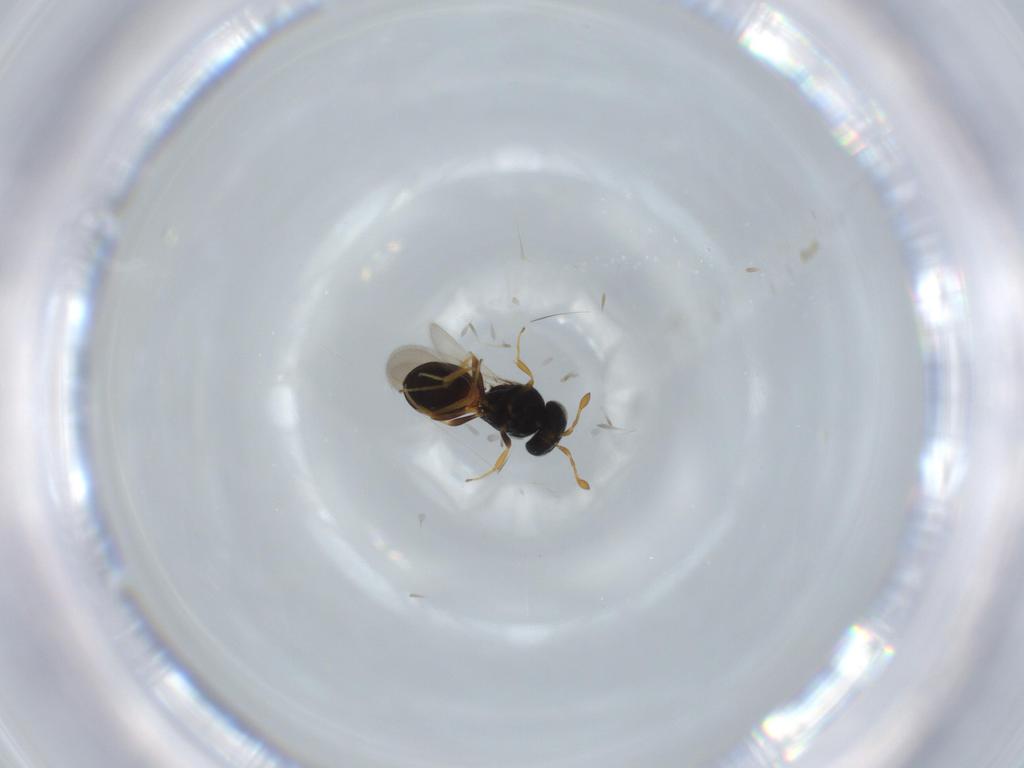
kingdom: Animalia
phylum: Arthropoda
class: Insecta
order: Hymenoptera
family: Scelionidae
